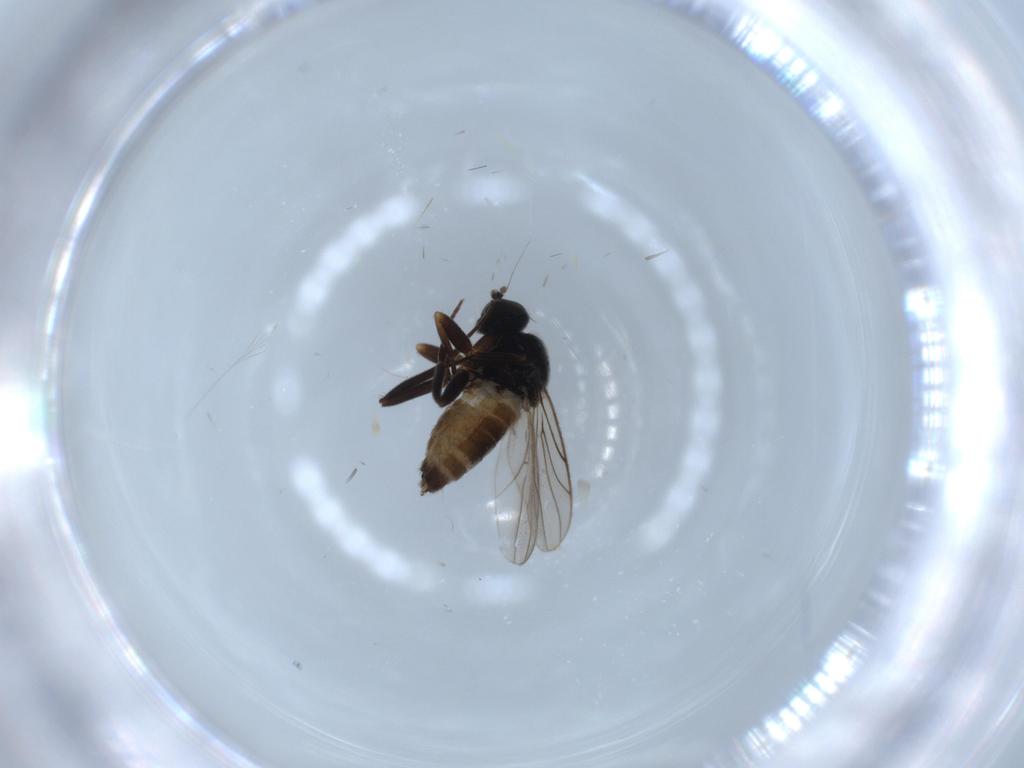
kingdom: Animalia
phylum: Arthropoda
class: Insecta
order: Diptera
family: Hybotidae
